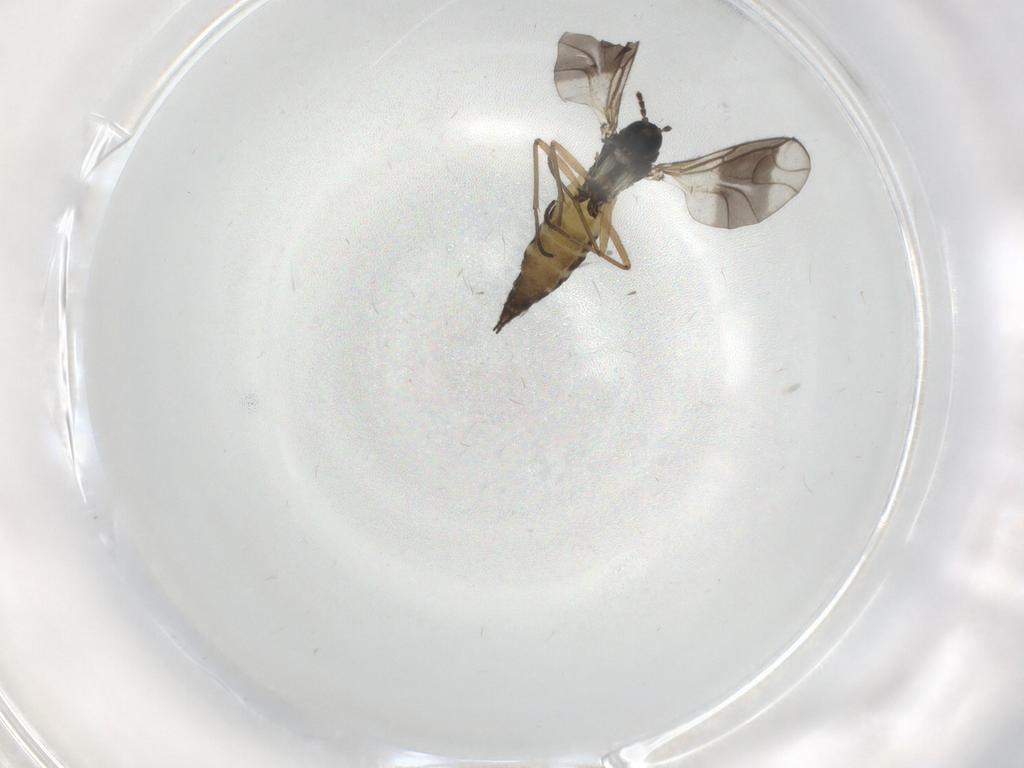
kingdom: Animalia
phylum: Arthropoda
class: Insecta
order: Diptera
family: Sciaridae
